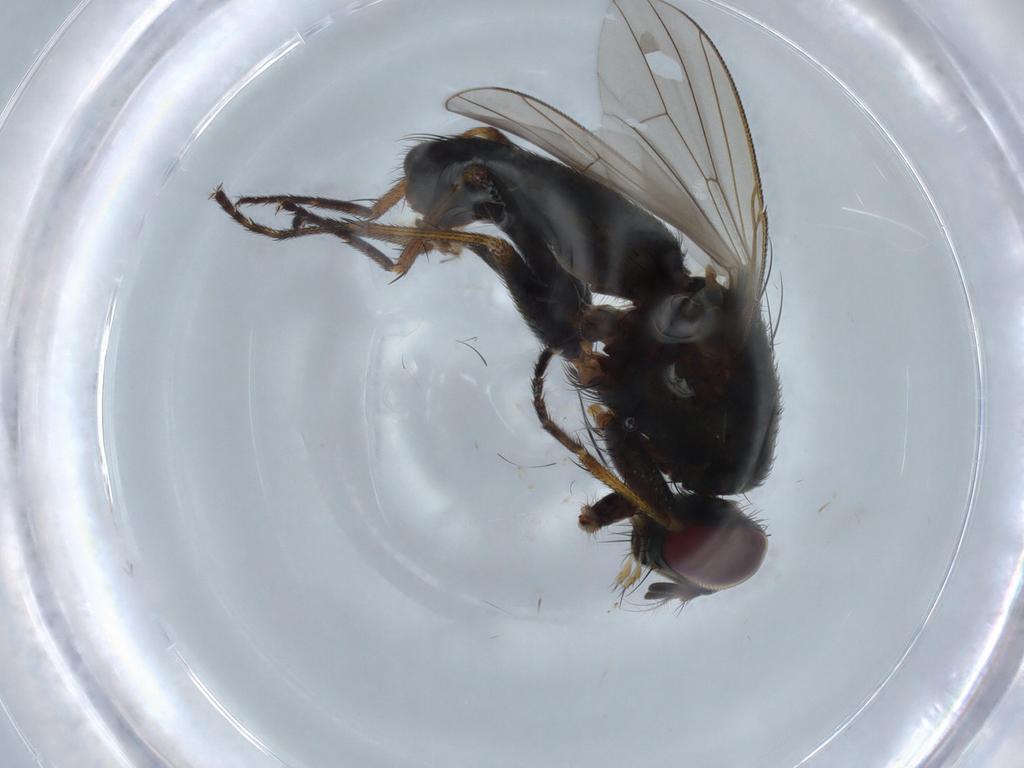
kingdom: Animalia
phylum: Arthropoda
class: Insecta
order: Diptera
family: Muscidae
